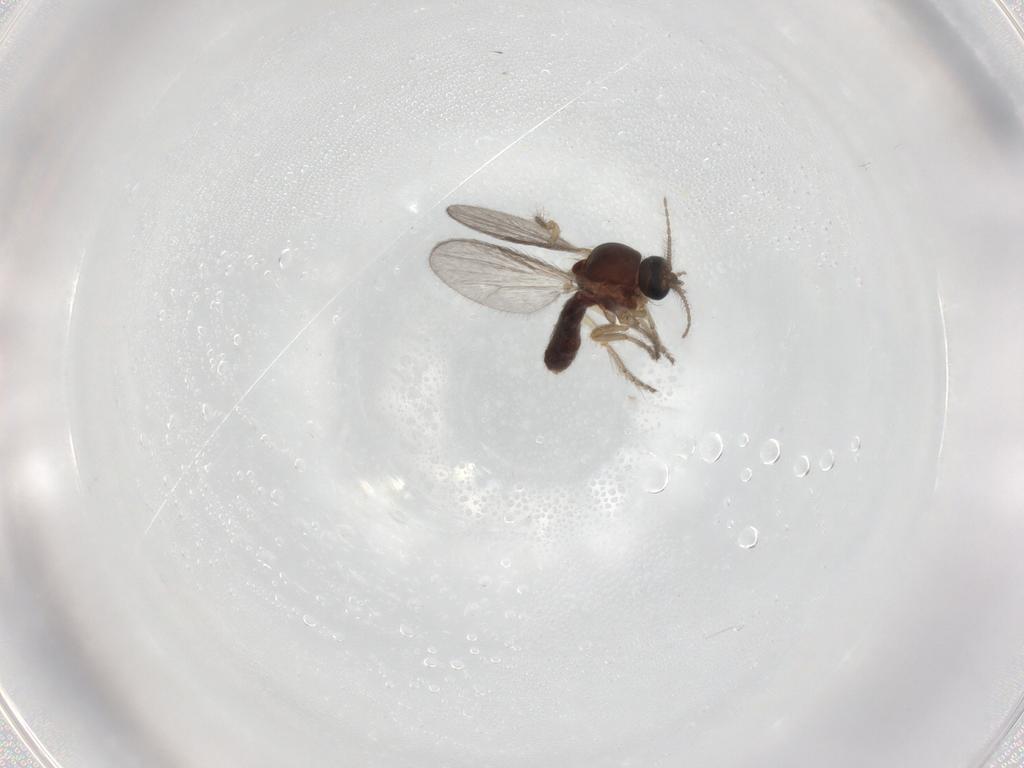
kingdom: Animalia
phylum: Arthropoda
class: Insecta
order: Diptera
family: Ceratopogonidae
